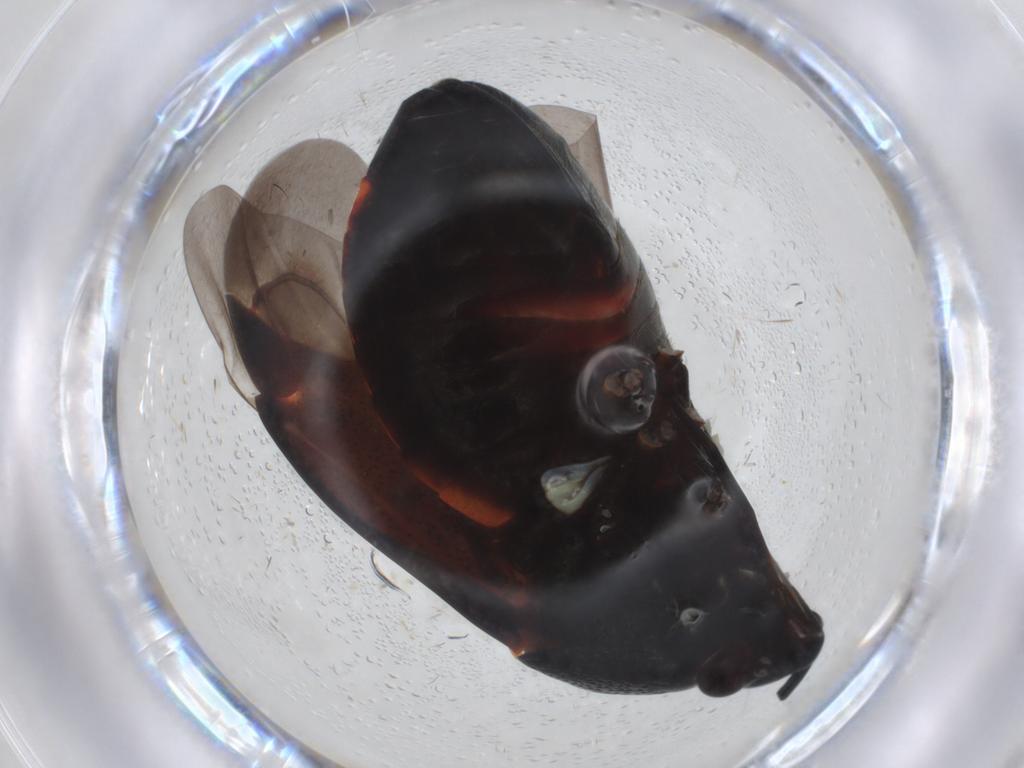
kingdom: Animalia
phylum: Arthropoda
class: Insecta
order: Hemiptera
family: Miridae
